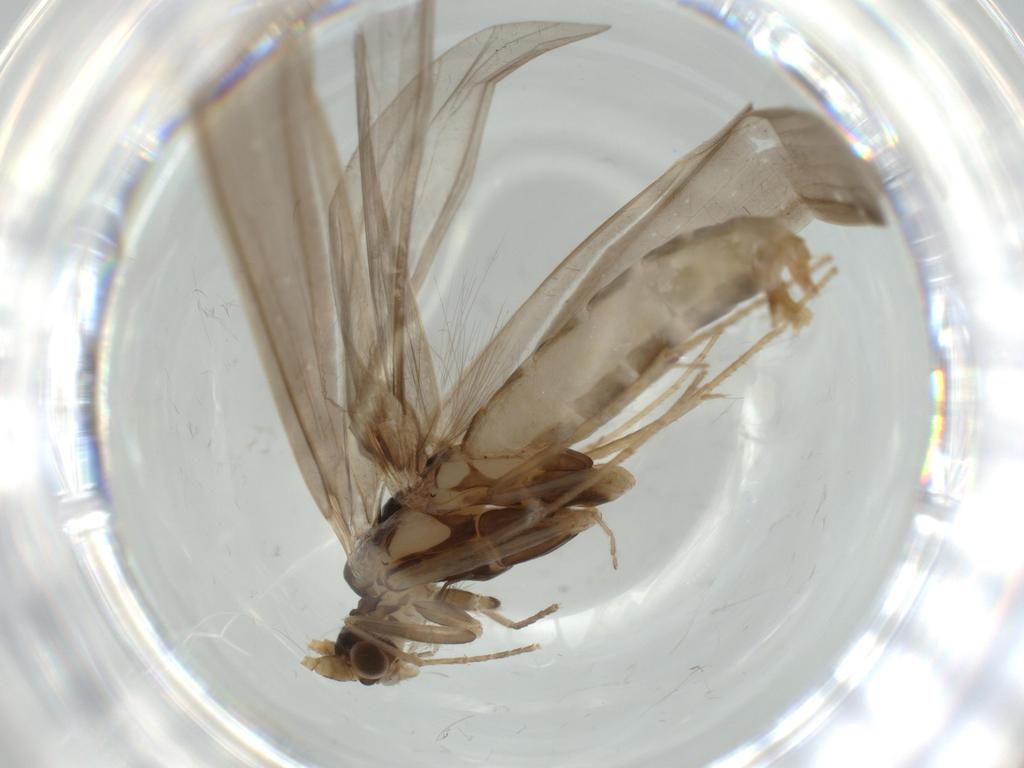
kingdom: Animalia
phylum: Arthropoda
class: Insecta
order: Trichoptera
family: Leptoceridae
